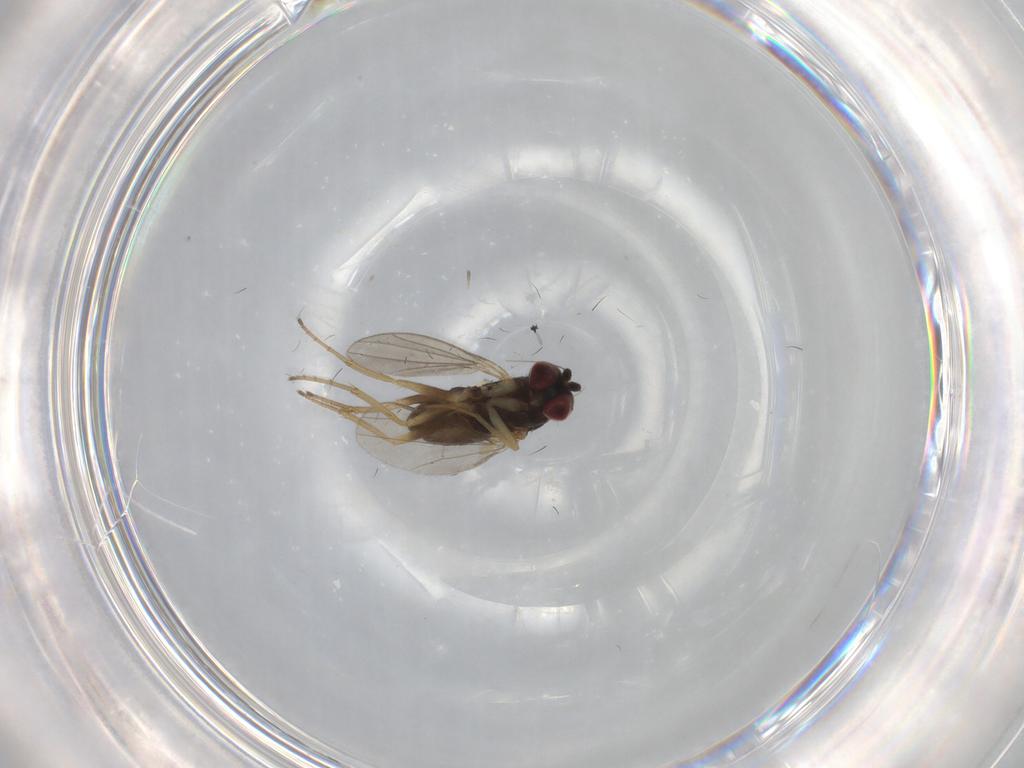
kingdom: Animalia
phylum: Arthropoda
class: Insecta
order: Diptera
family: Dolichopodidae
